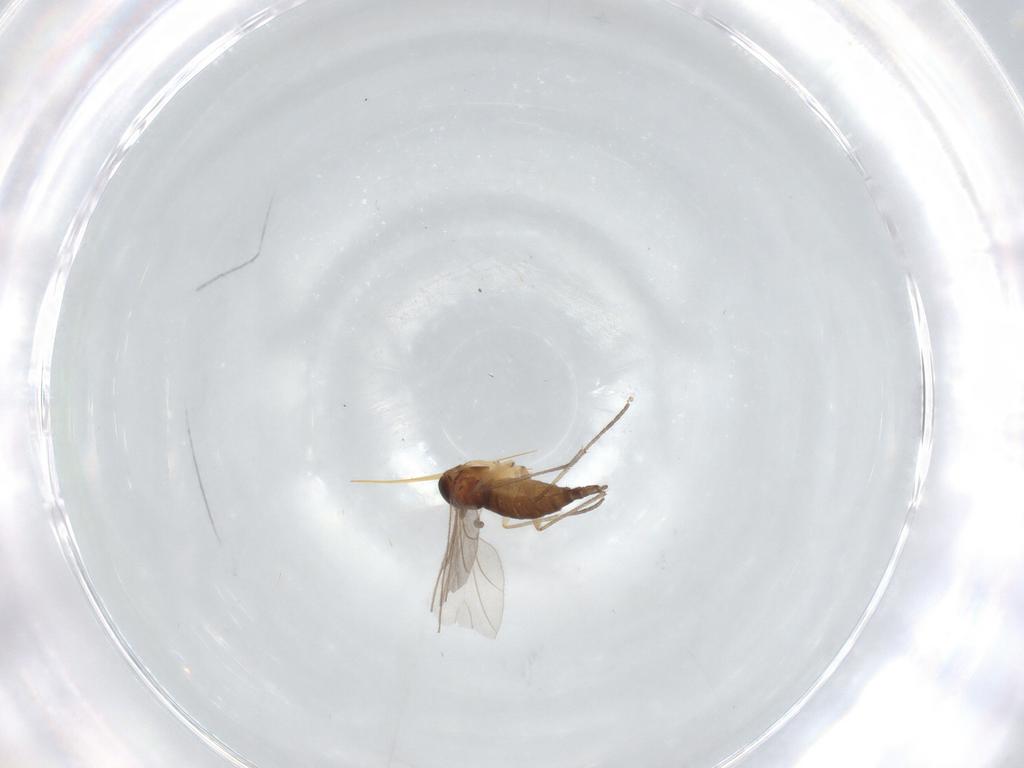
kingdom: Animalia
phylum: Arthropoda
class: Insecta
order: Diptera
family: Sciaridae
